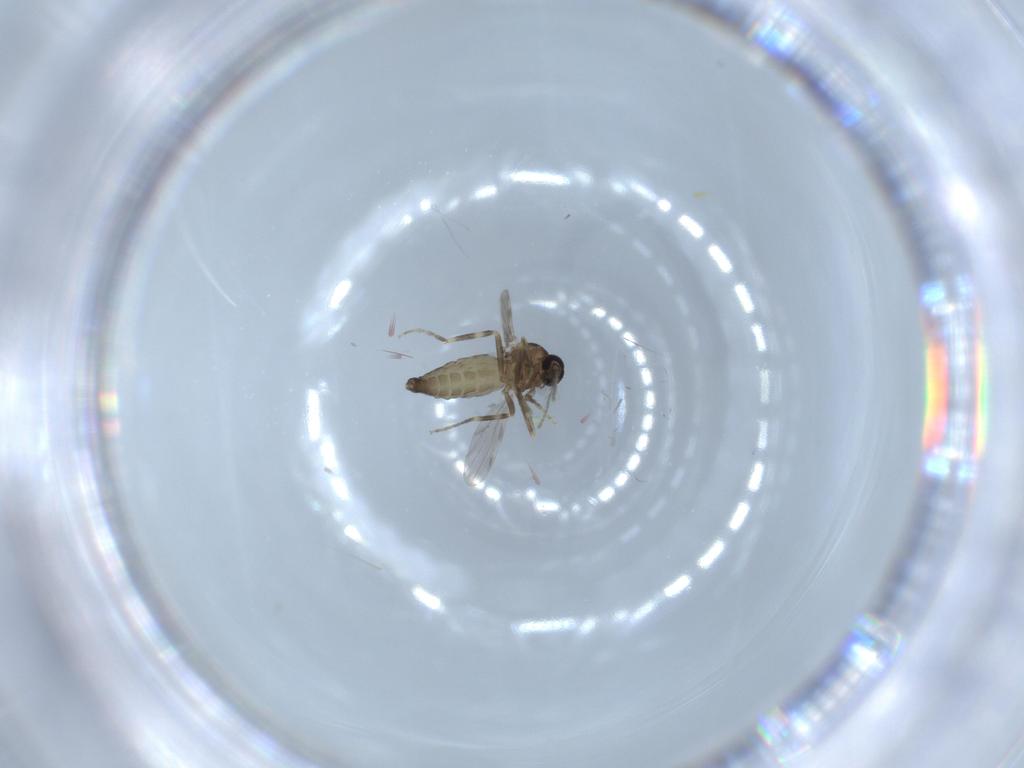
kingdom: Animalia
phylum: Arthropoda
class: Insecta
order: Diptera
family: Ceratopogonidae
